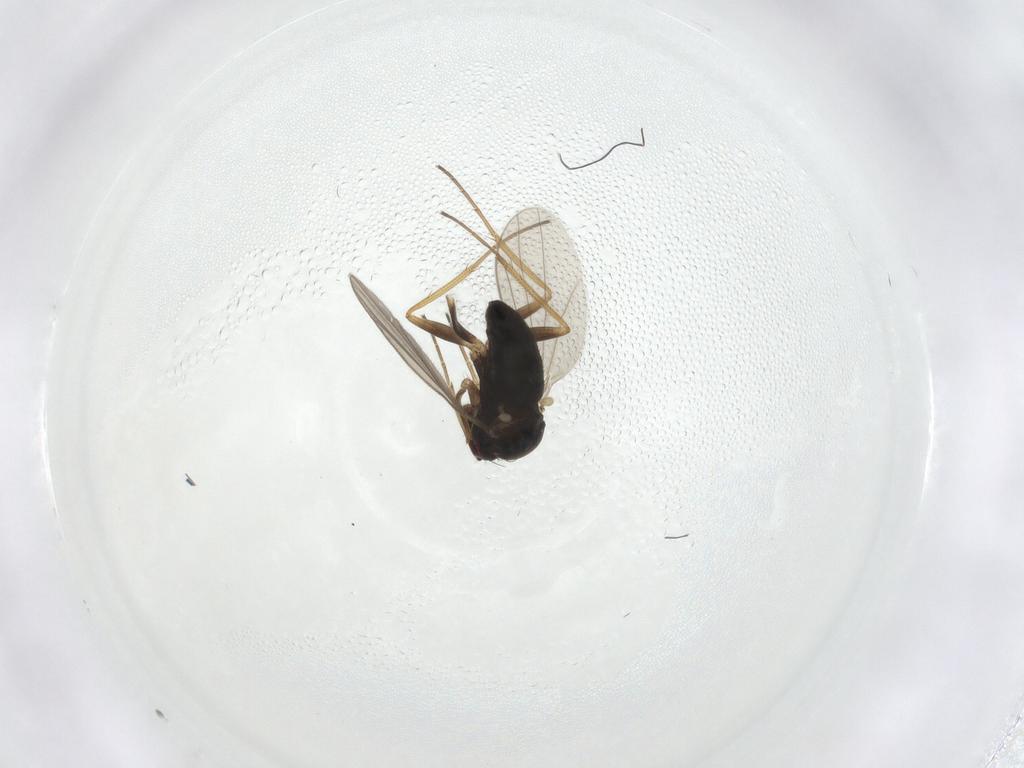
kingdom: Animalia
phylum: Arthropoda
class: Insecta
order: Diptera
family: Dolichopodidae
